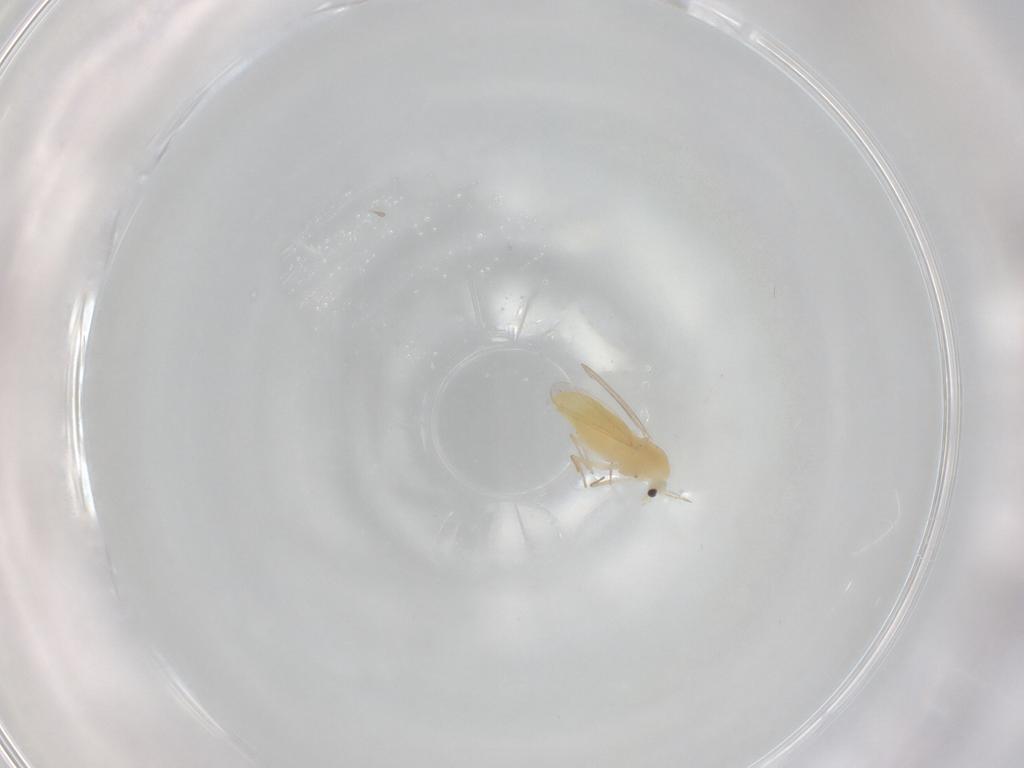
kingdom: Animalia
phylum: Arthropoda
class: Insecta
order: Diptera
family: Chironomidae
